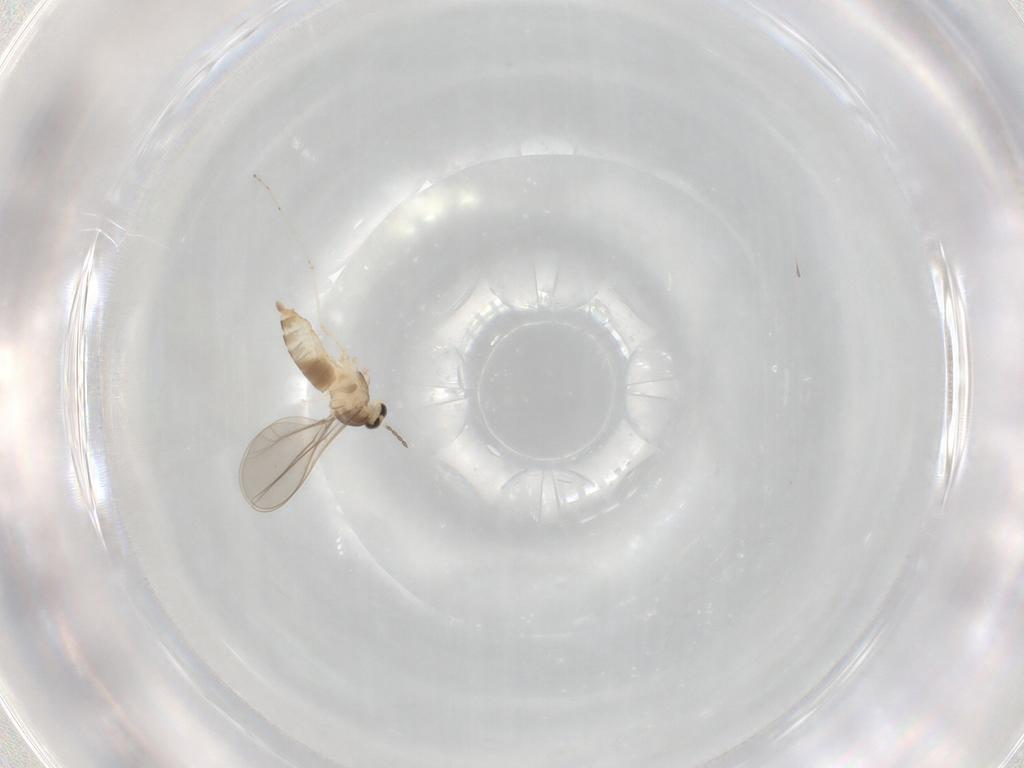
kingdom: Animalia
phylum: Arthropoda
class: Insecta
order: Diptera
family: Cecidomyiidae
